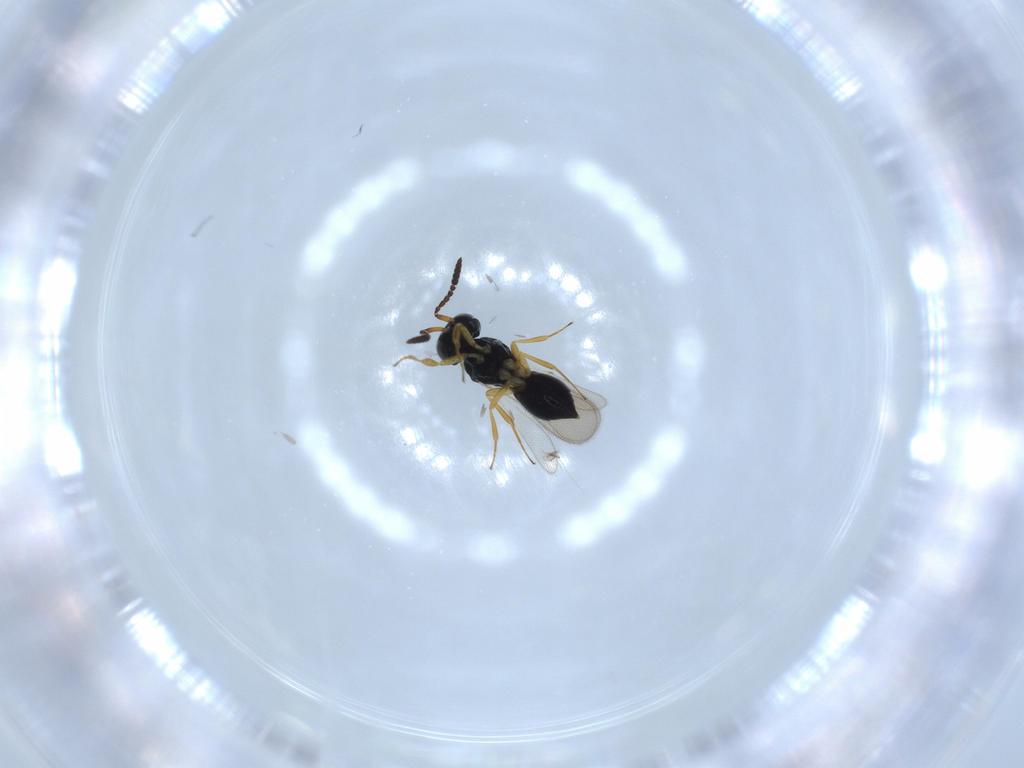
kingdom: Animalia
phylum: Arthropoda
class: Insecta
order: Hymenoptera
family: Scelionidae
